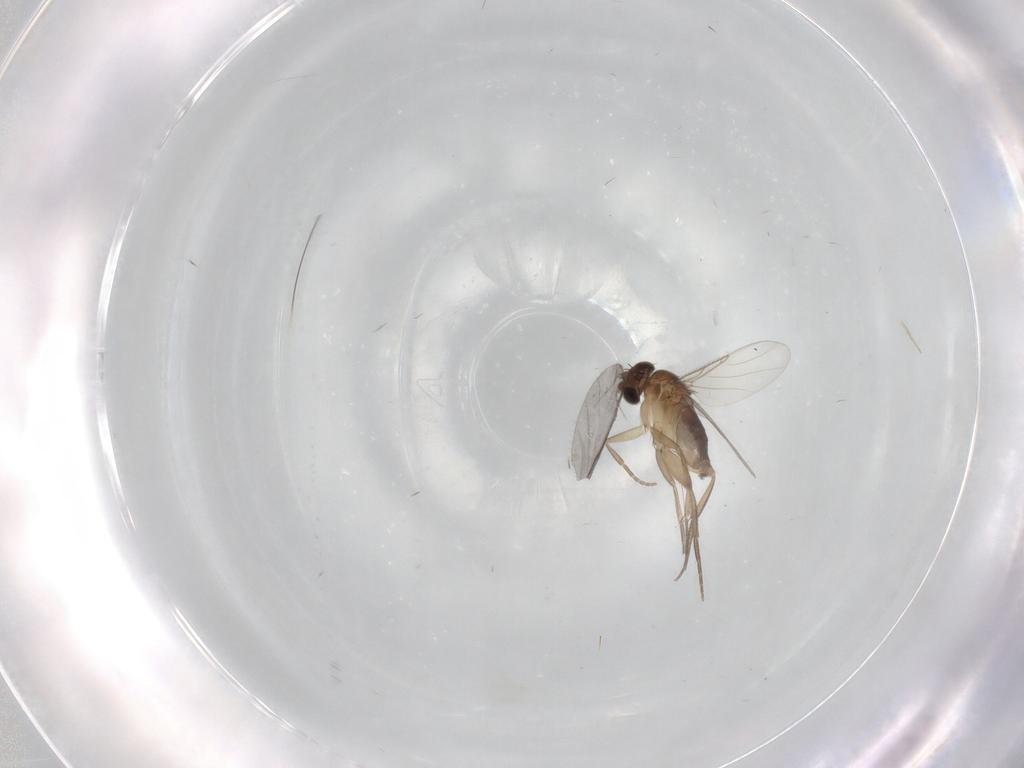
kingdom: Animalia
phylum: Arthropoda
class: Insecta
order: Diptera
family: Phoridae
